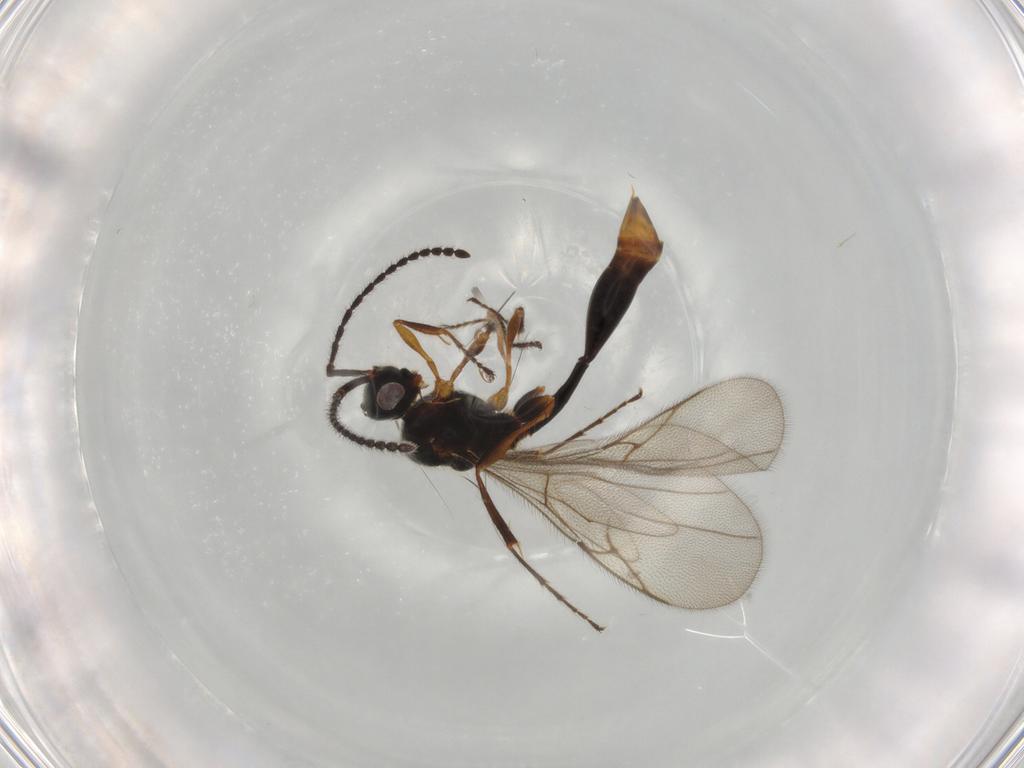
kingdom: Animalia
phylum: Arthropoda
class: Insecta
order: Hymenoptera
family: Diapriidae
